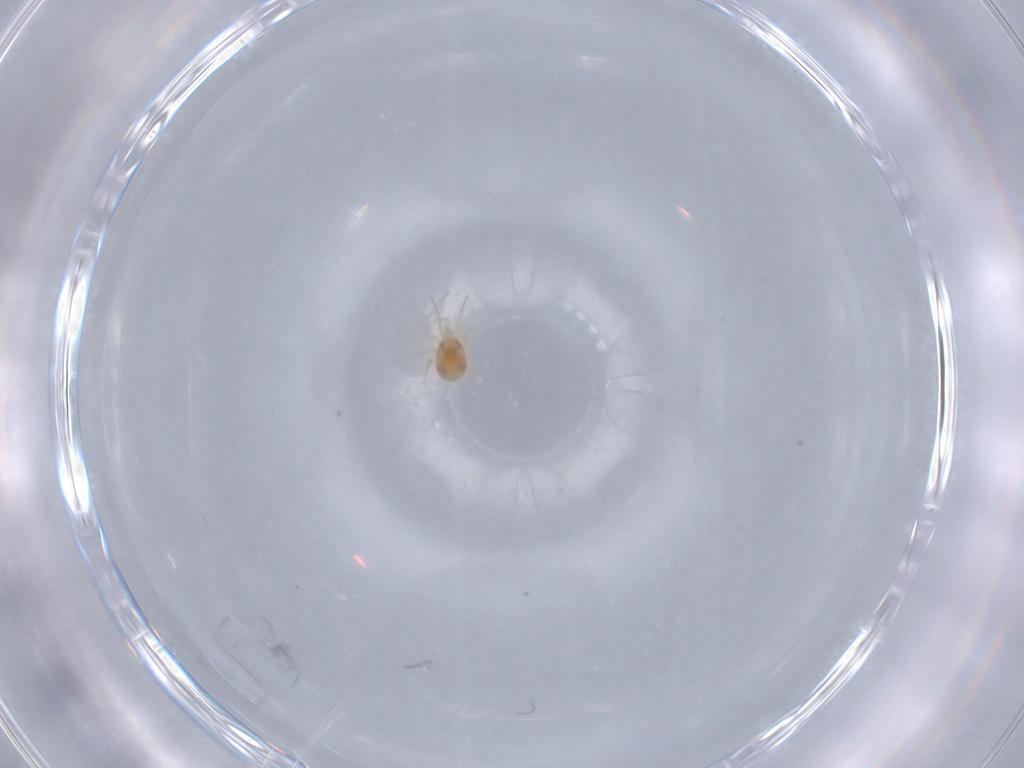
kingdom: Animalia
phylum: Arthropoda
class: Arachnida
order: Mesostigmata
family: Phytoseiidae
